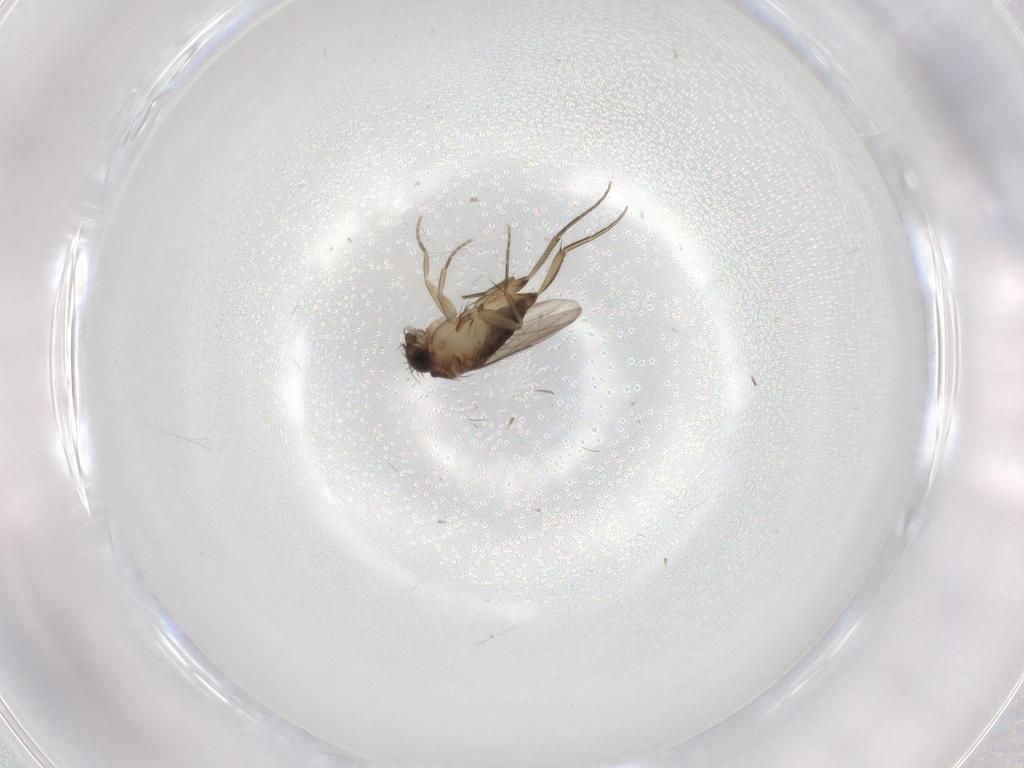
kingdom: Animalia
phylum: Arthropoda
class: Insecta
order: Diptera
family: Phoridae
